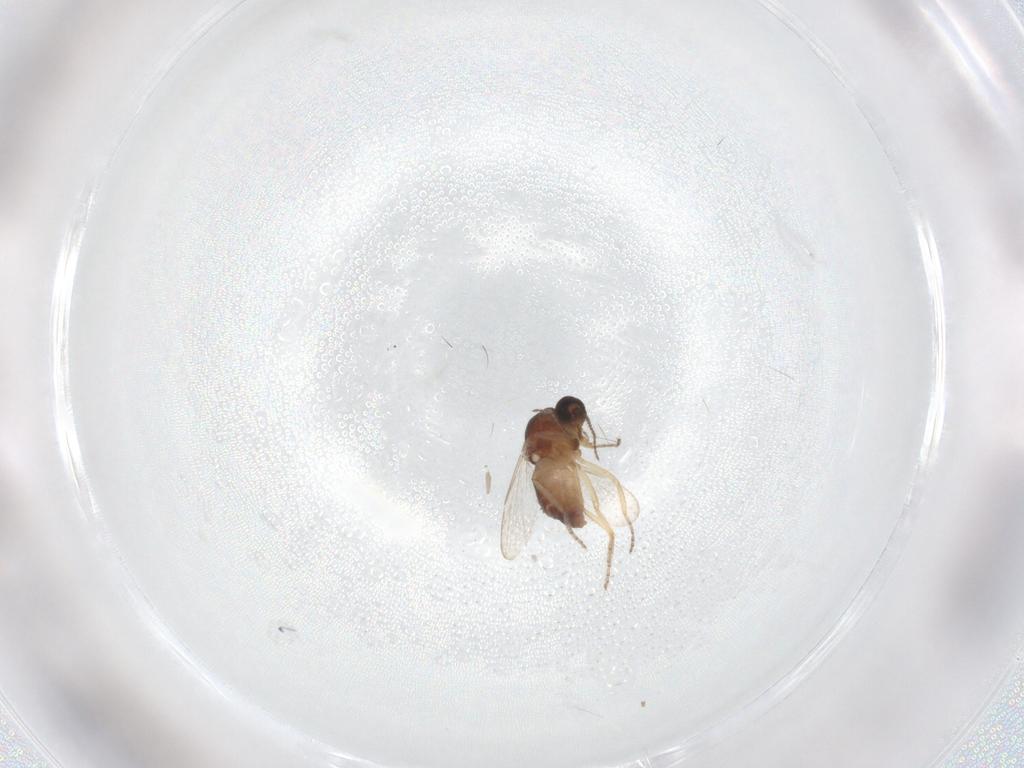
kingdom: Animalia
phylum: Arthropoda
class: Insecta
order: Diptera
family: Ceratopogonidae
